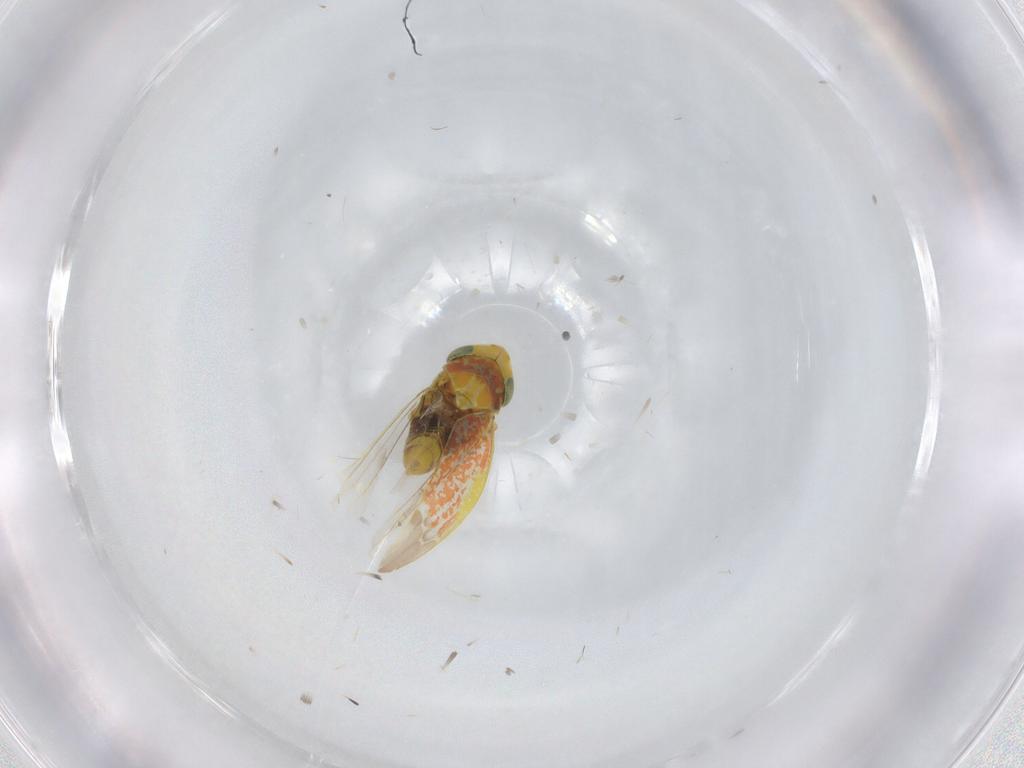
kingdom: Animalia
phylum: Arthropoda
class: Insecta
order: Hemiptera
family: Cicadellidae
